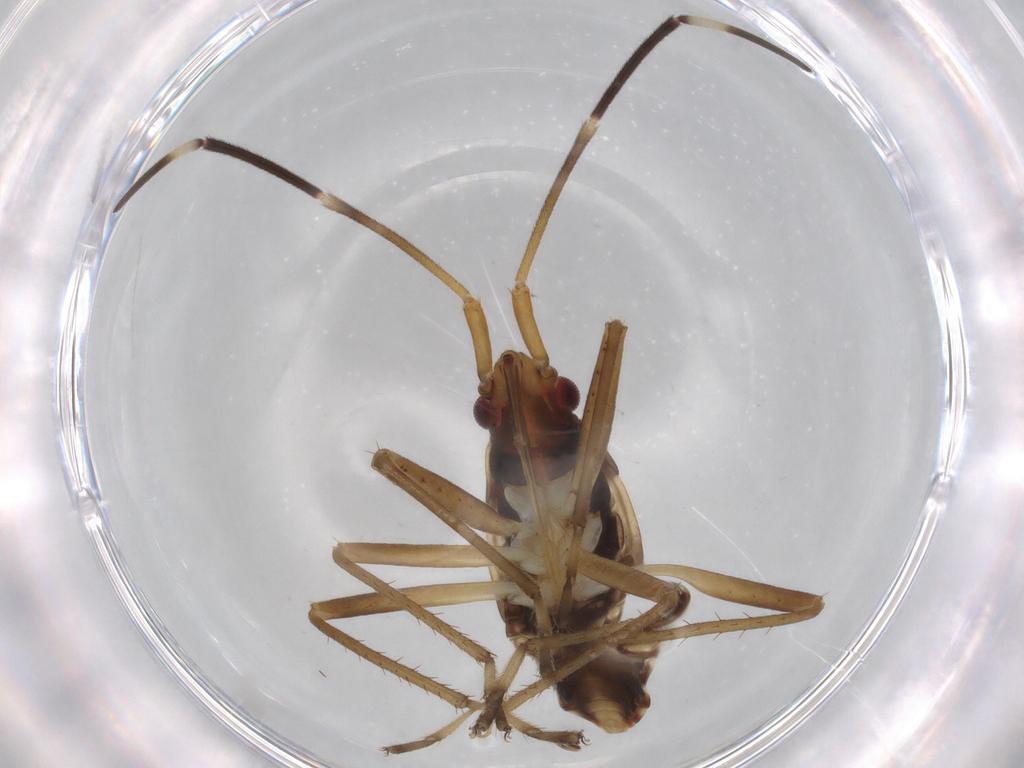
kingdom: Animalia
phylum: Arthropoda
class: Insecta
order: Hemiptera
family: Rhyparochromidae
